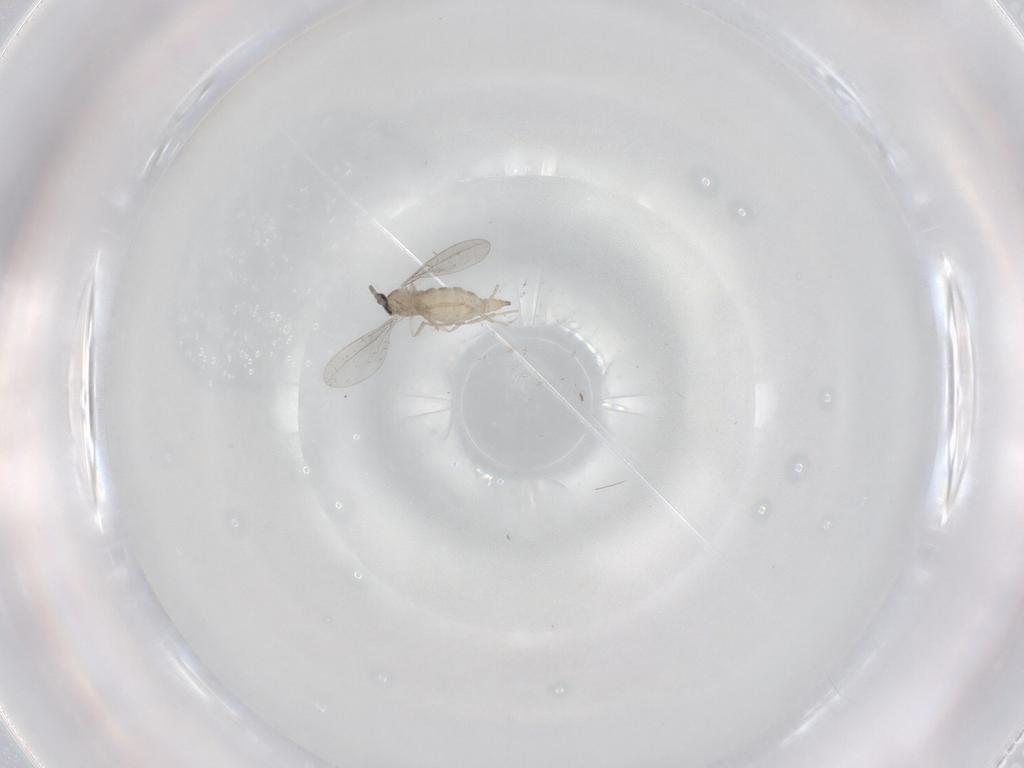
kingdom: Animalia
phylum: Arthropoda
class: Insecta
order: Diptera
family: Cecidomyiidae
